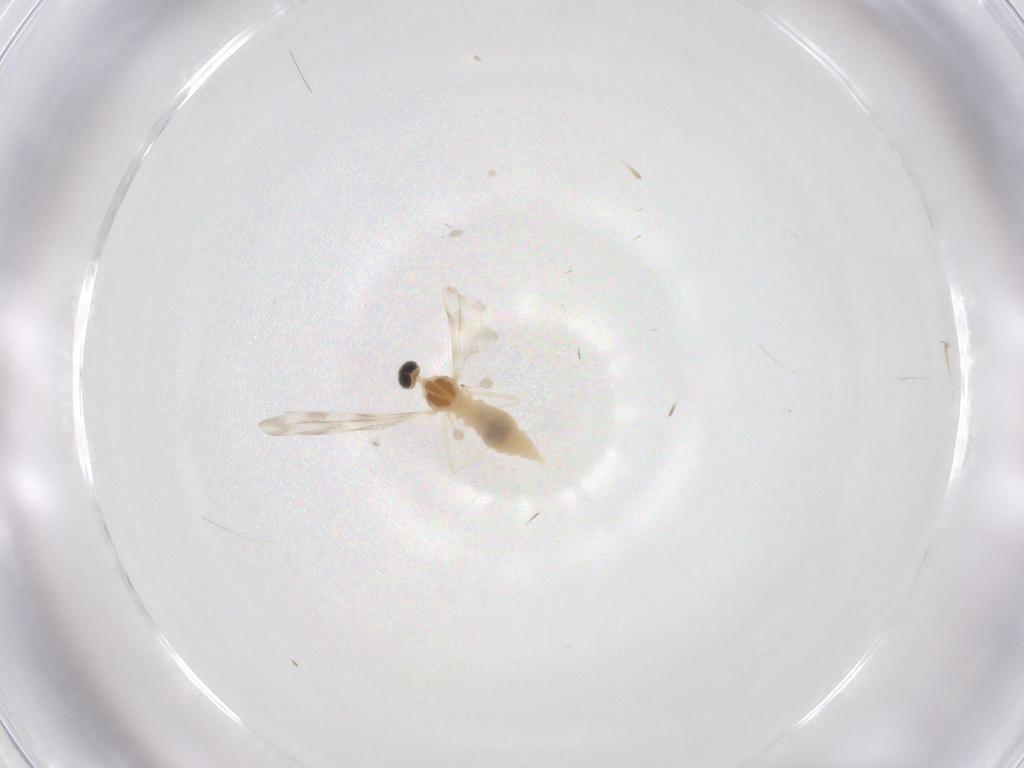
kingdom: Animalia
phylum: Arthropoda
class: Insecta
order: Diptera
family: Cecidomyiidae
